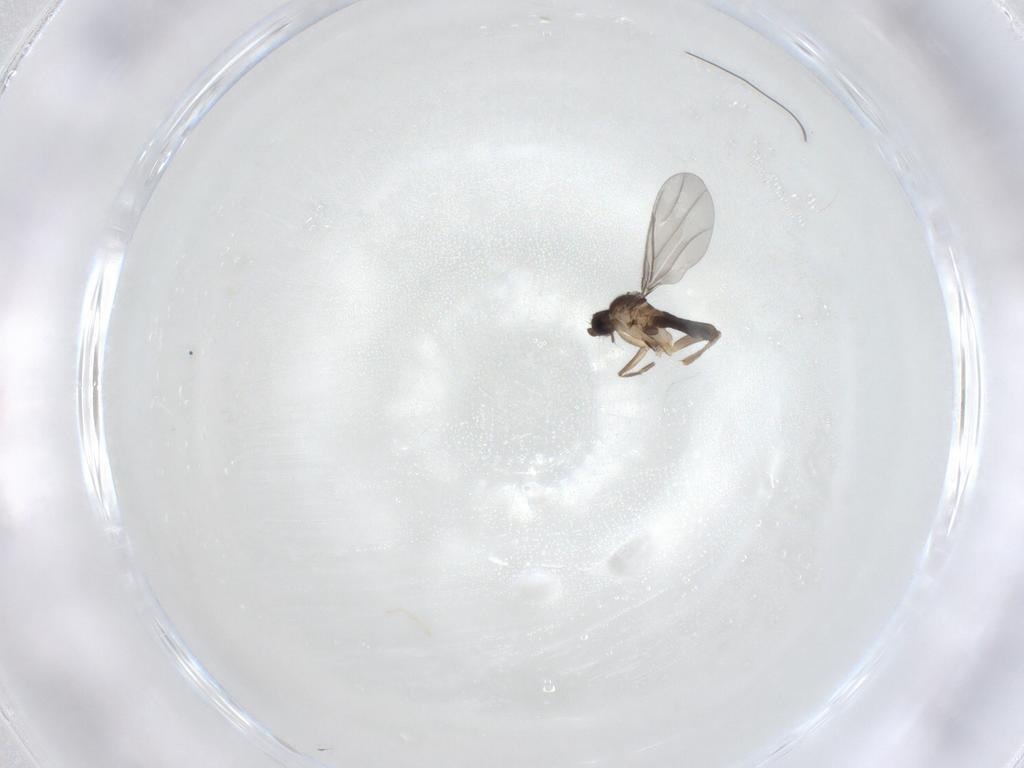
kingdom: Animalia
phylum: Arthropoda
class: Insecta
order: Diptera
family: Phoridae
